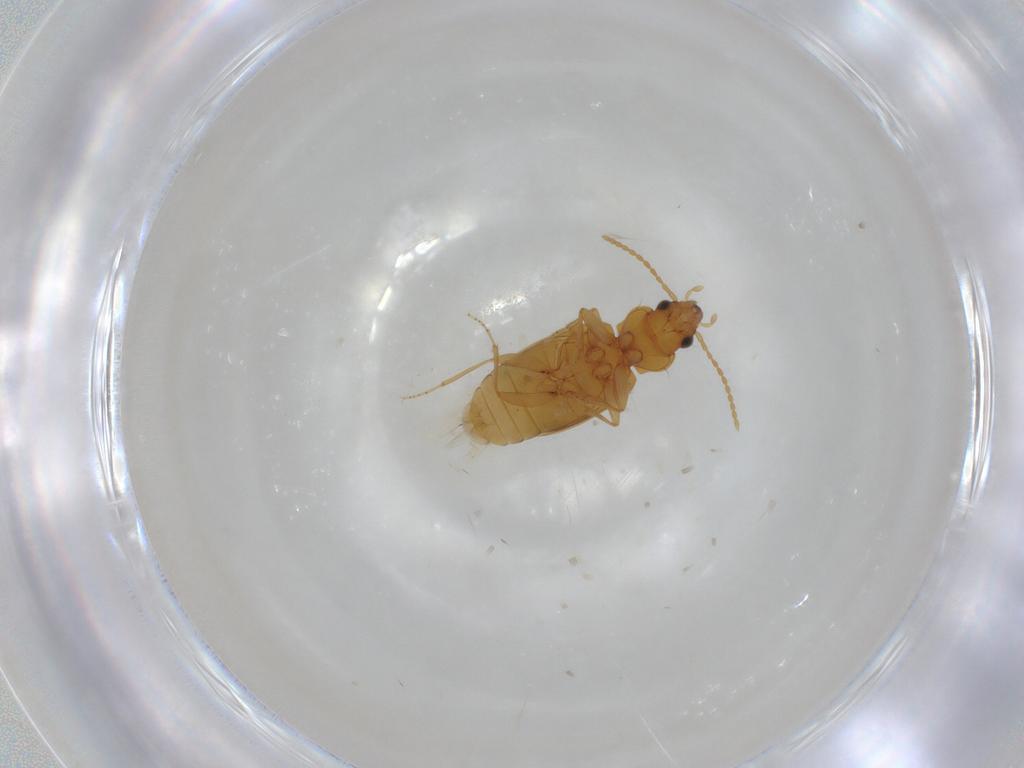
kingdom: Animalia
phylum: Arthropoda
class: Insecta
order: Coleoptera
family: Carabidae
